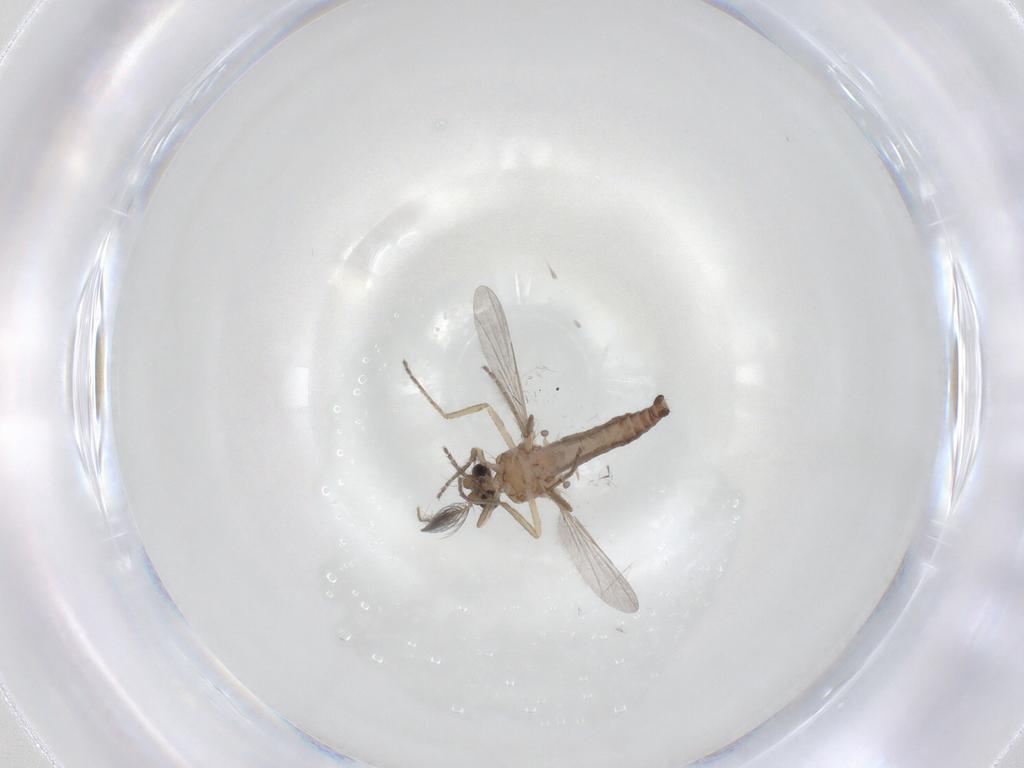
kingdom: Animalia
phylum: Arthropoda
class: Insecta
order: Diptera
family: Ceratopogonidae
